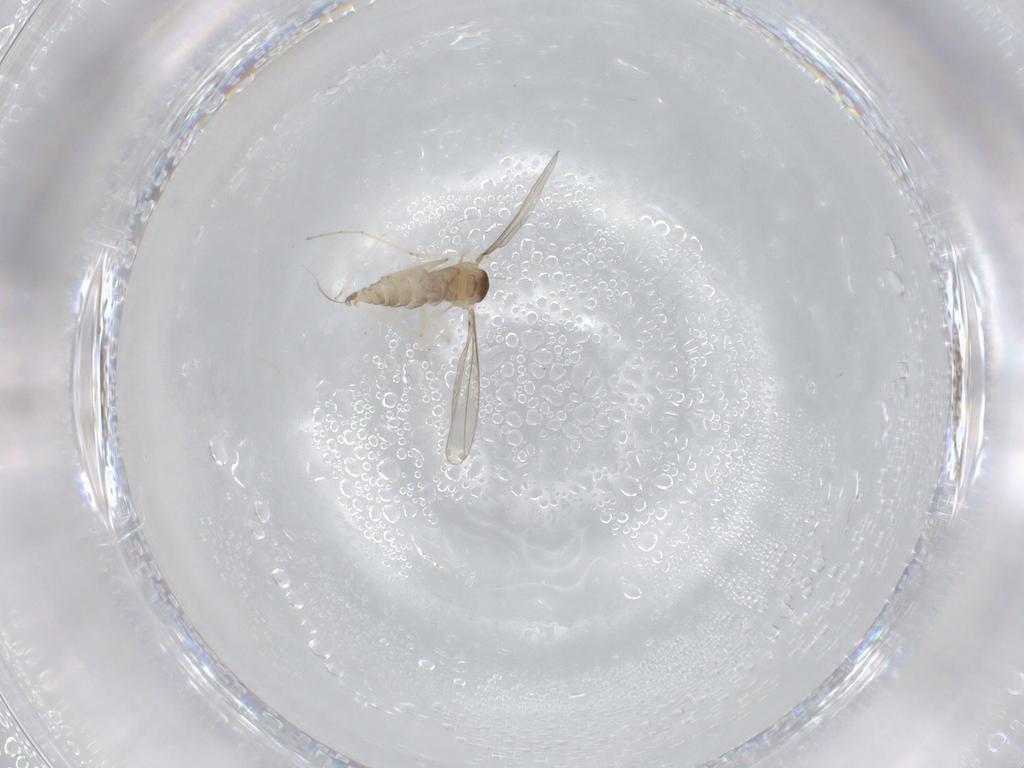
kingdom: Animalia
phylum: Arthropoda
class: Insecta
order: Diptera
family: Cecidomyiidae
